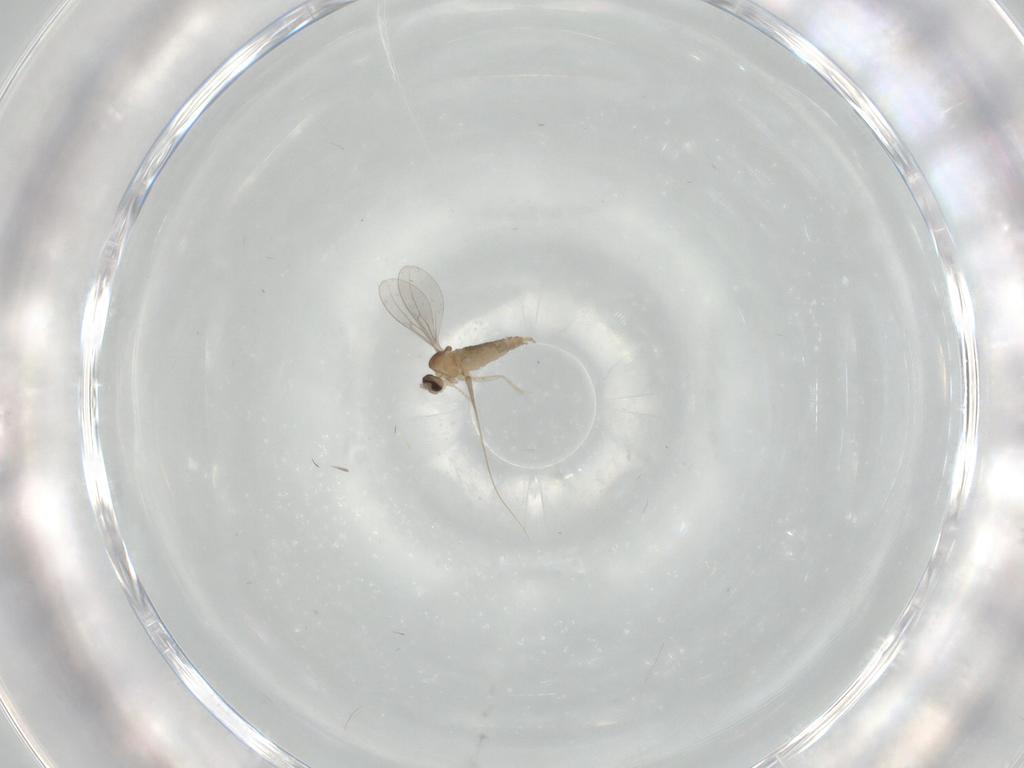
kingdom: Animalia
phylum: Arthropoda
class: Insecta
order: Diptera
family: Cecidomyiidae
